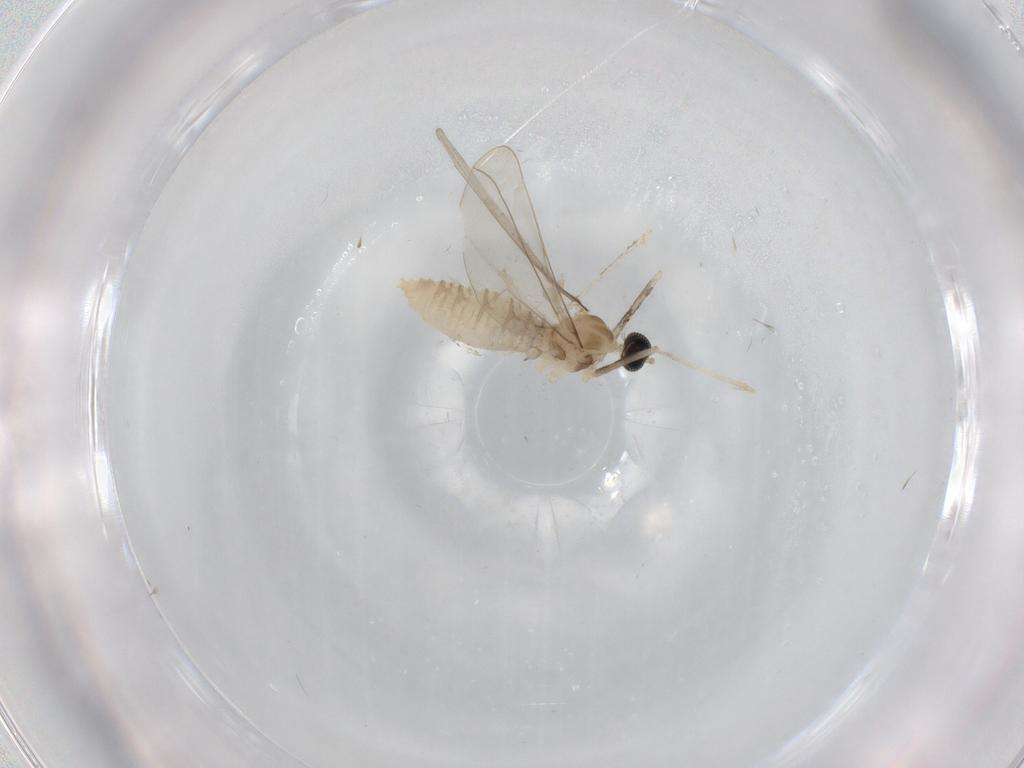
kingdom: Animalia
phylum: Arthropoda
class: Insecta
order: Diptera
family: Cecidomyiidae
